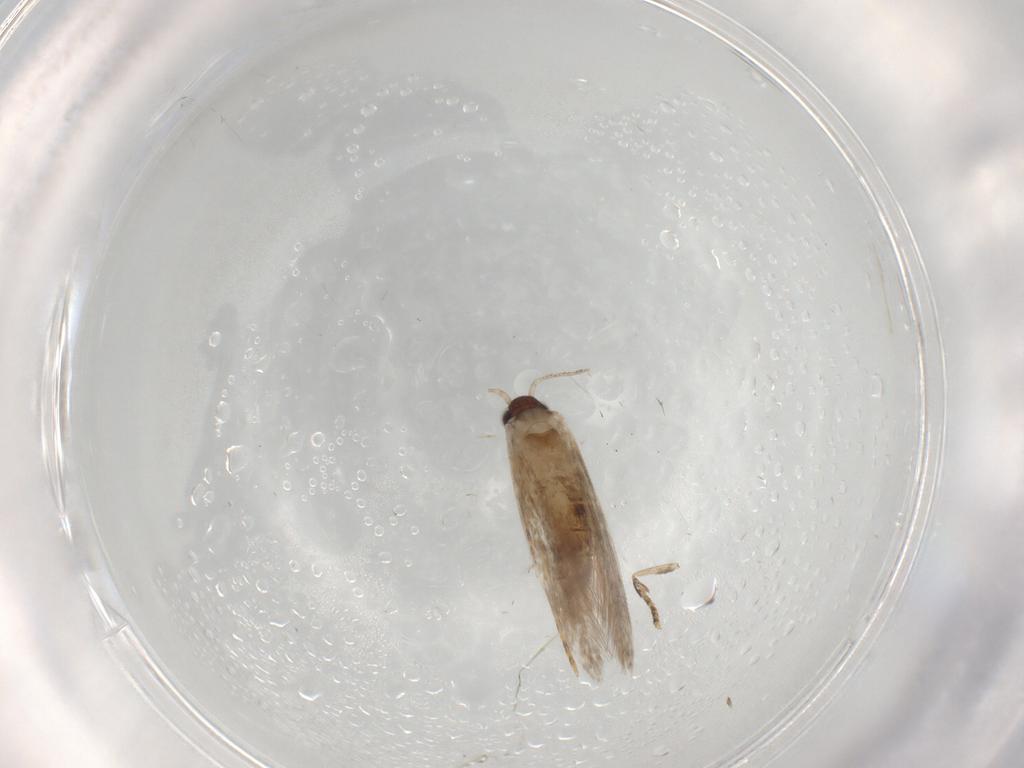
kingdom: Animalia
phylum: Arthropoda
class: Insecta
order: Lepidoptera
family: Tineidae
